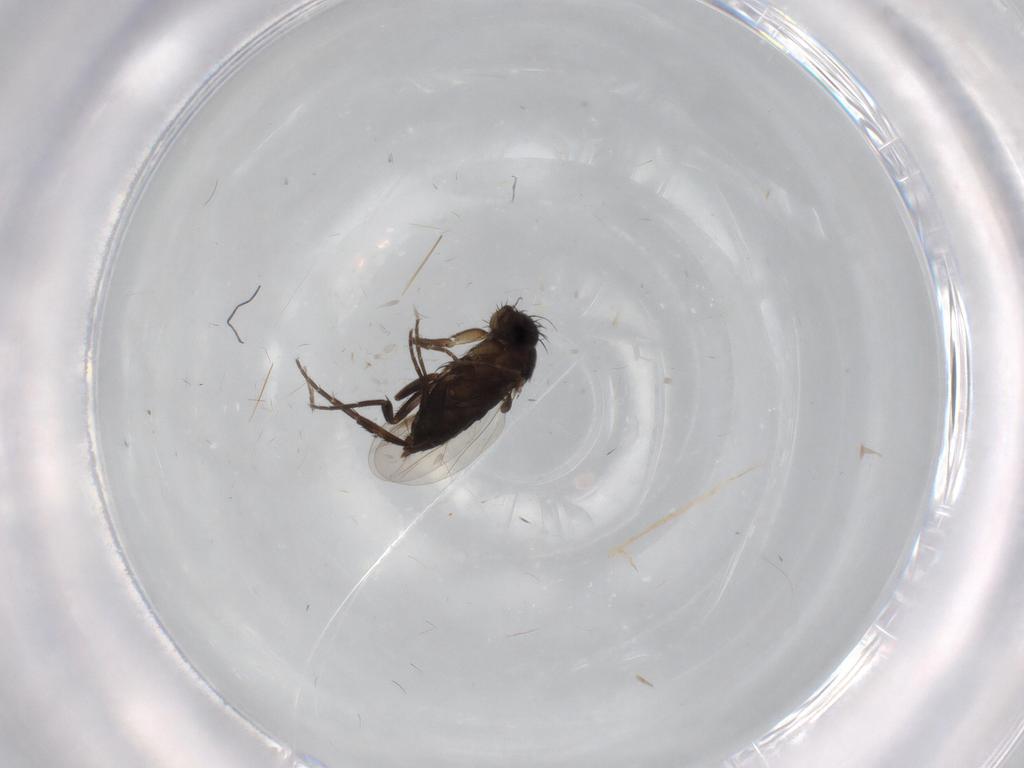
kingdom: Animalia
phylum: Arthropoda
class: Insecta
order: Diptera
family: Phoridae
